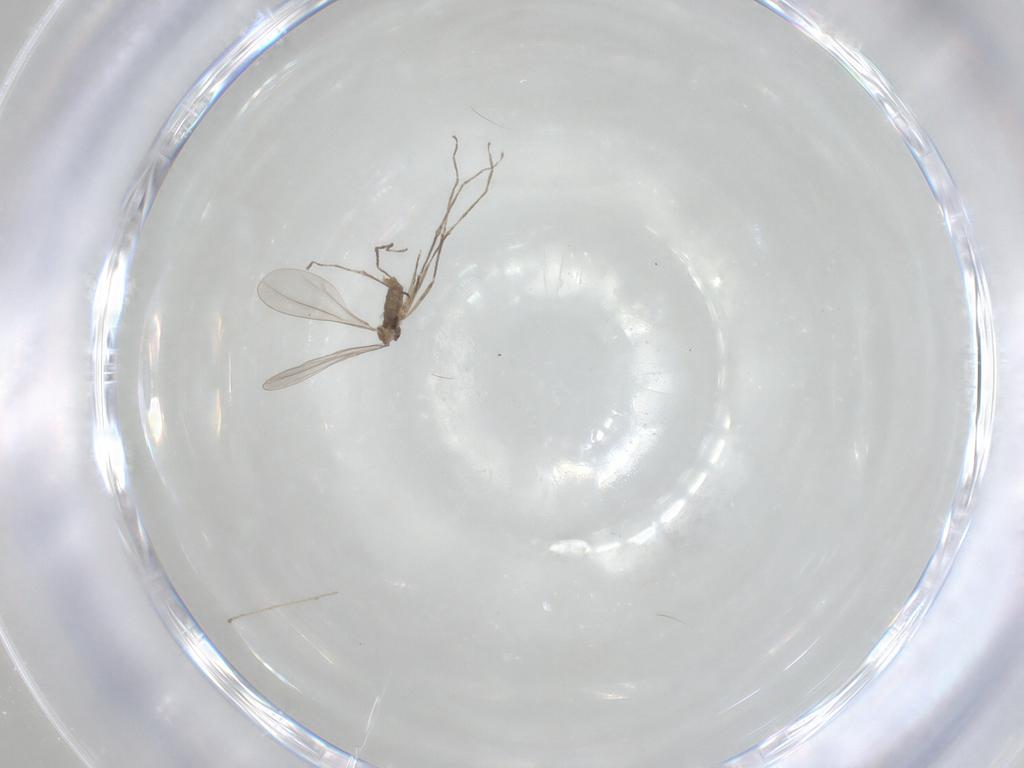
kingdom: Animalia
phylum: Arthropoda
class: Insecta
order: Diptera
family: Cecidomyiidae
